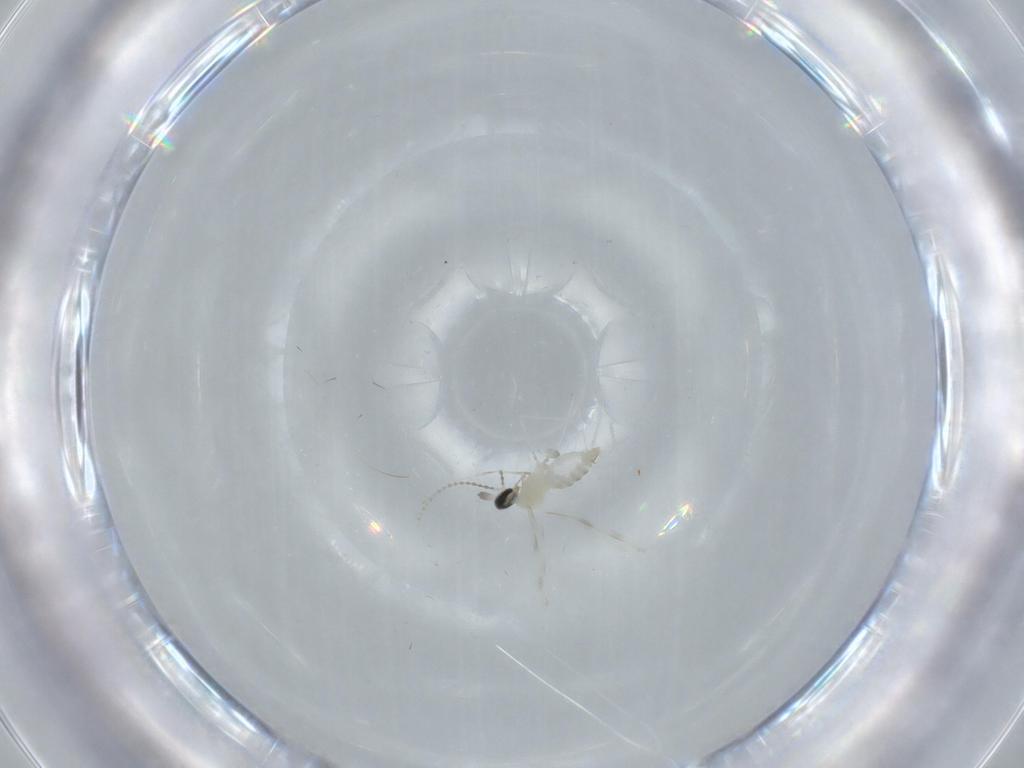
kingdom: Animalia
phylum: Arthropoda
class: Insecta
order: Diptera
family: Cecidomyiidae
